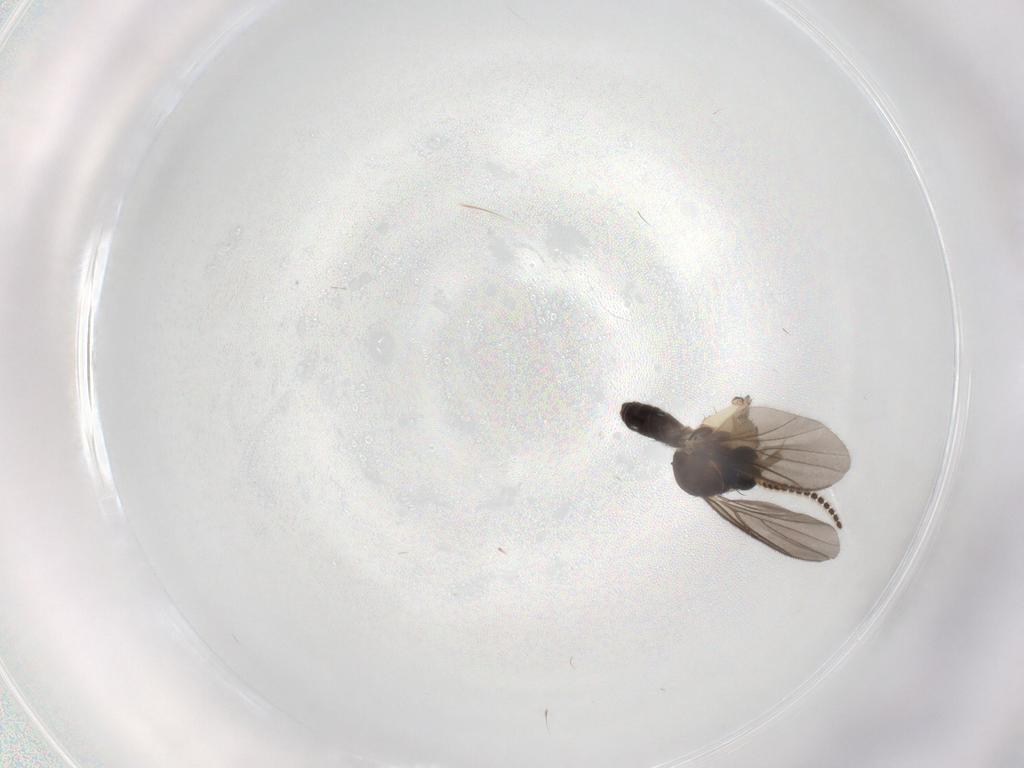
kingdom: Animalia
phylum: Arthropoda
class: Insecta
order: Diptera
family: Mycetophilidae
